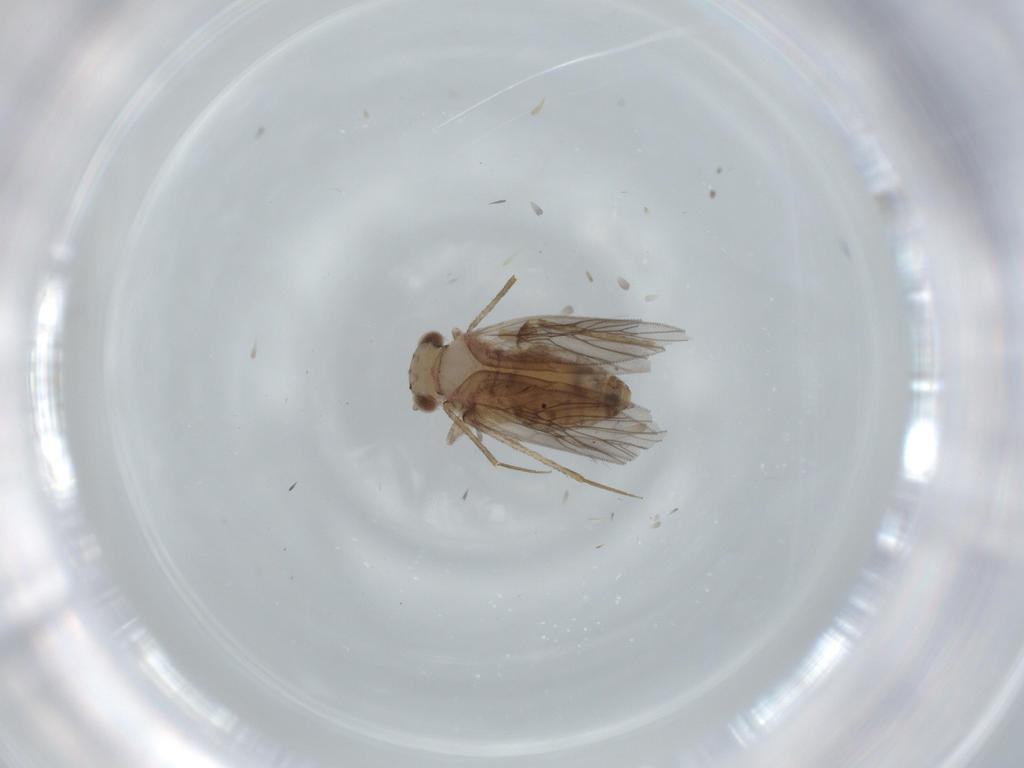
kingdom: Animalia
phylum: Arthropoda
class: Insecta
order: Psocodea
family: Lepidopsocidae
